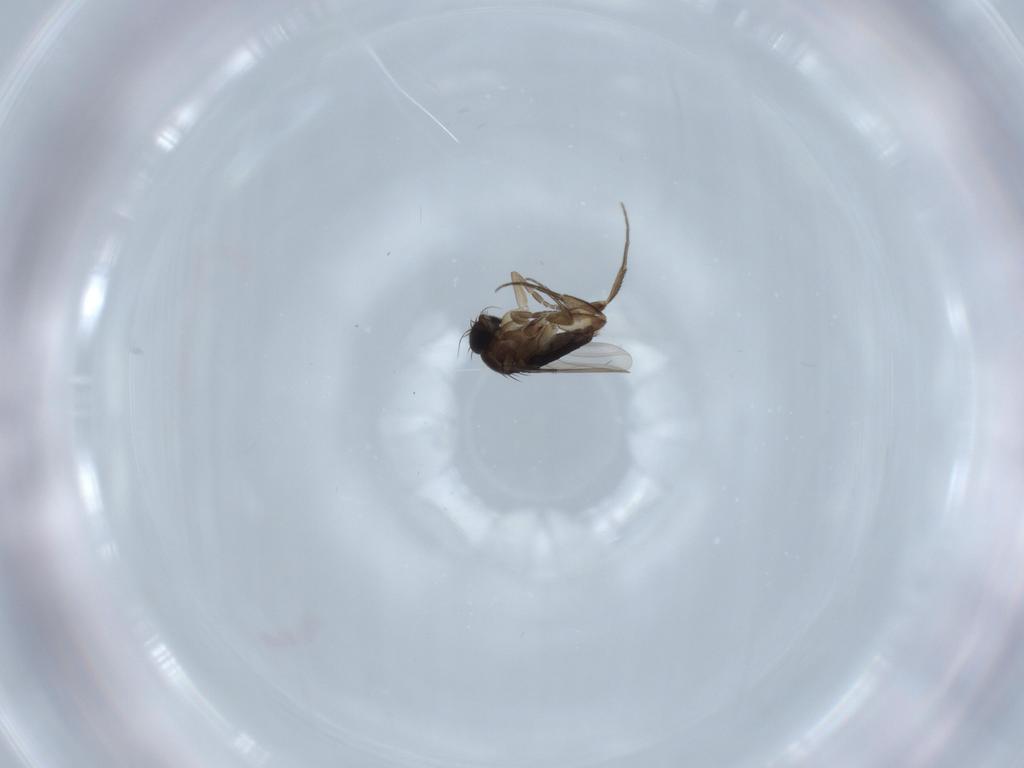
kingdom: Animalia
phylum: Arthropoda
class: Insecta
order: Diptera
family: Phoridae
